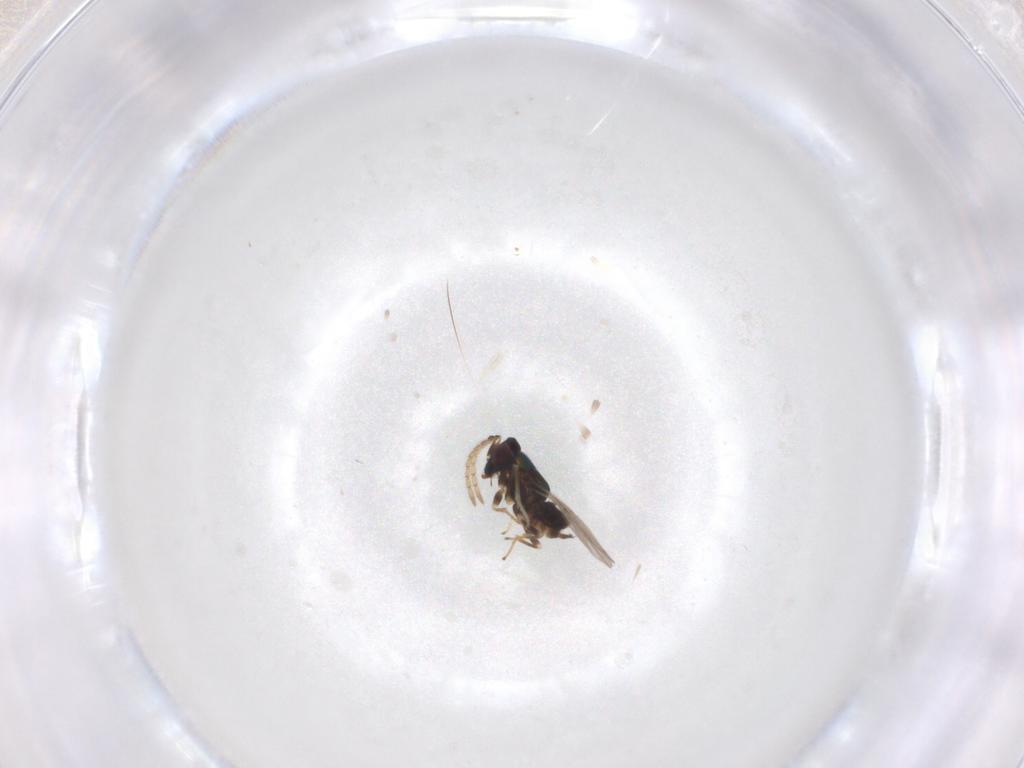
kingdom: Animalia
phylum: Arthropoda
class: Insecta
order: Hymenoptera
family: Encyrtidae
